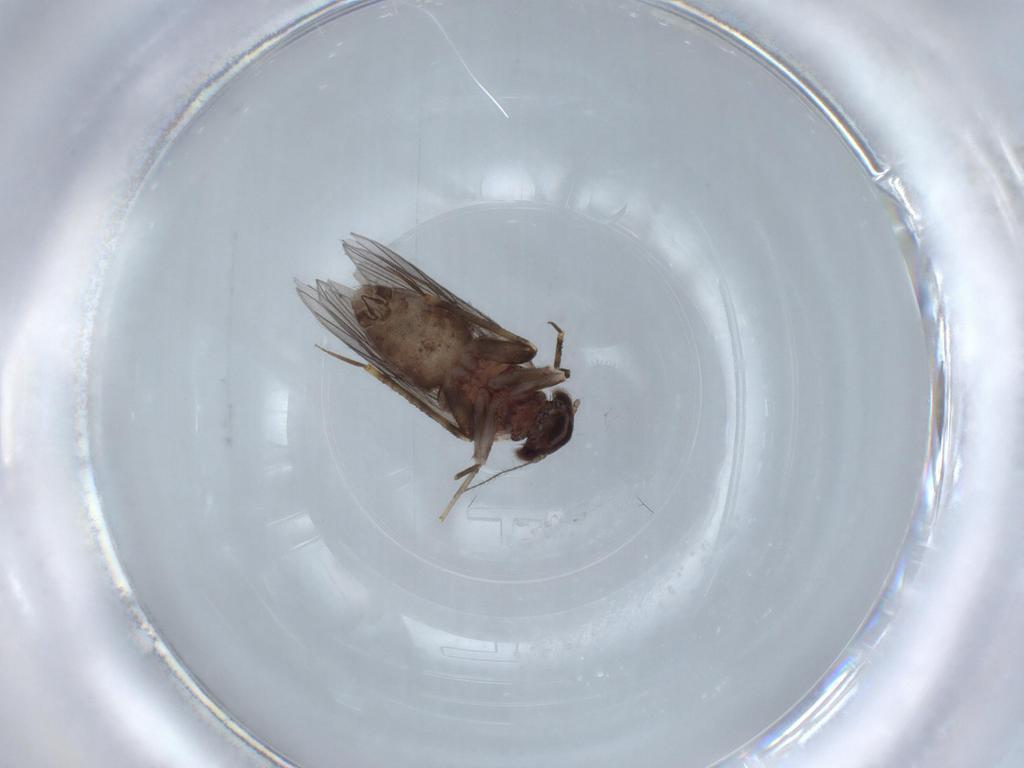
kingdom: Animalia
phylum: Arthropoda
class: Insecta
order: Psocodea
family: Lepidopsocidae
